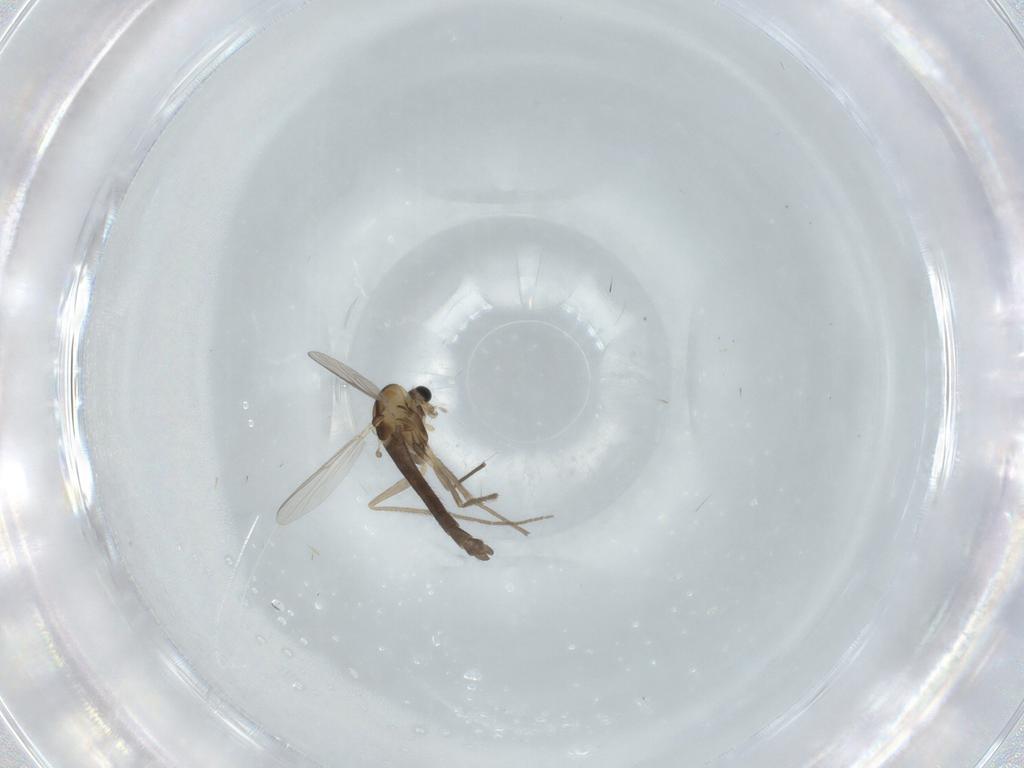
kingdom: Animalia
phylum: Arthropoda
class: Insecta
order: Diptera
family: Chironomidae
